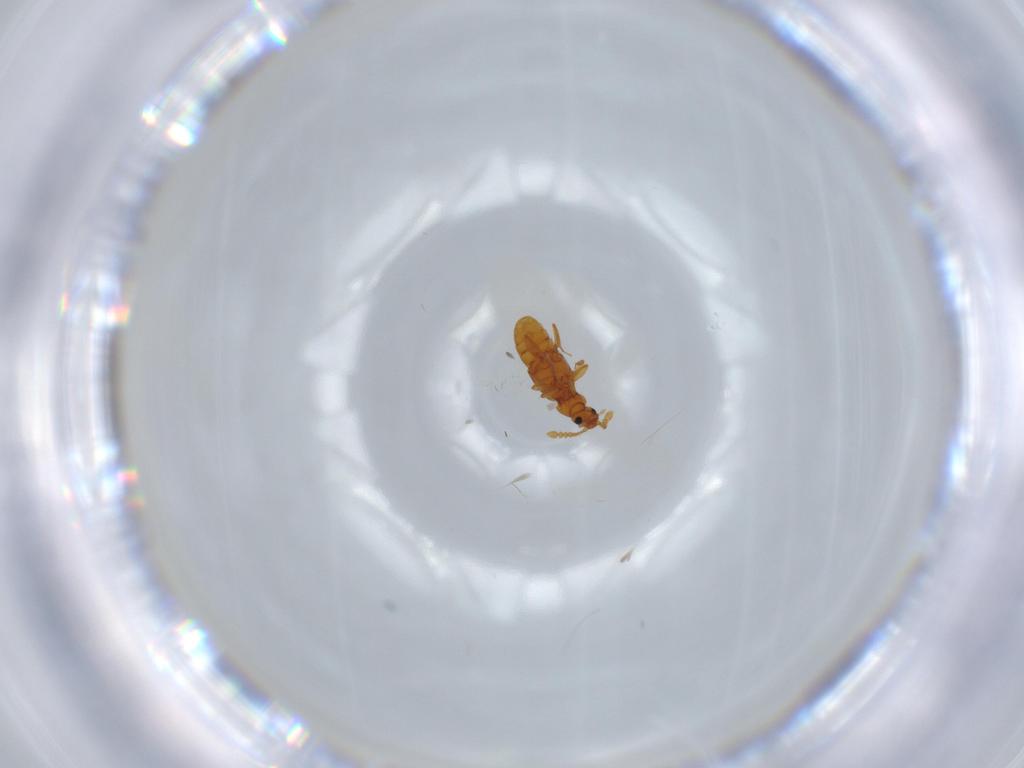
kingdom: Animalia
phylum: Arthropoda
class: Insecta
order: Coleoptera
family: Staphylinidae
